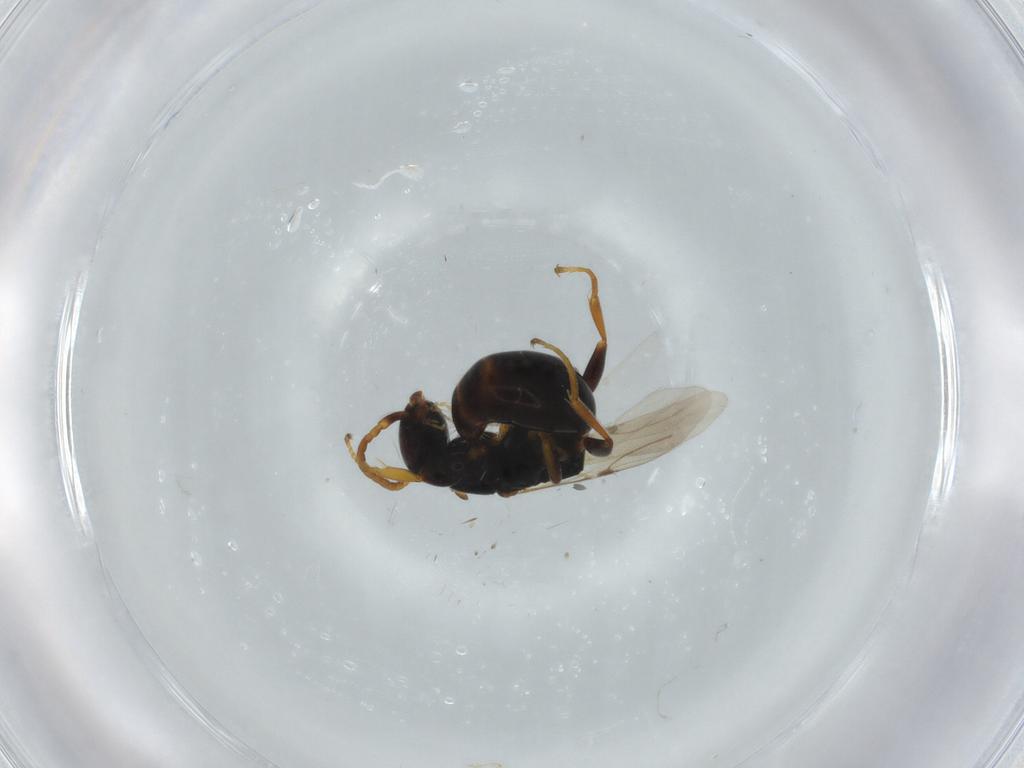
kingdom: Animalia
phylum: Arthropoda
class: Insecta
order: Hymenoptera
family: Bethylidae
